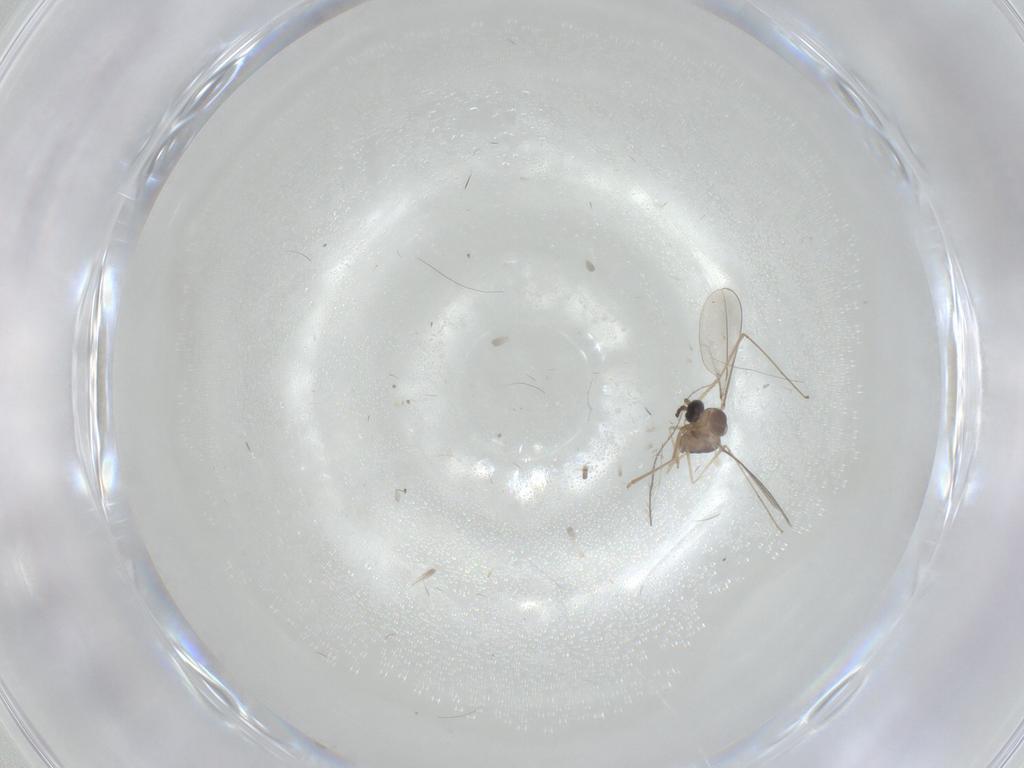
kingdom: Animalia
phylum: Arthropoda
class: Insecta
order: Diptera
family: Cecidomyiidae
